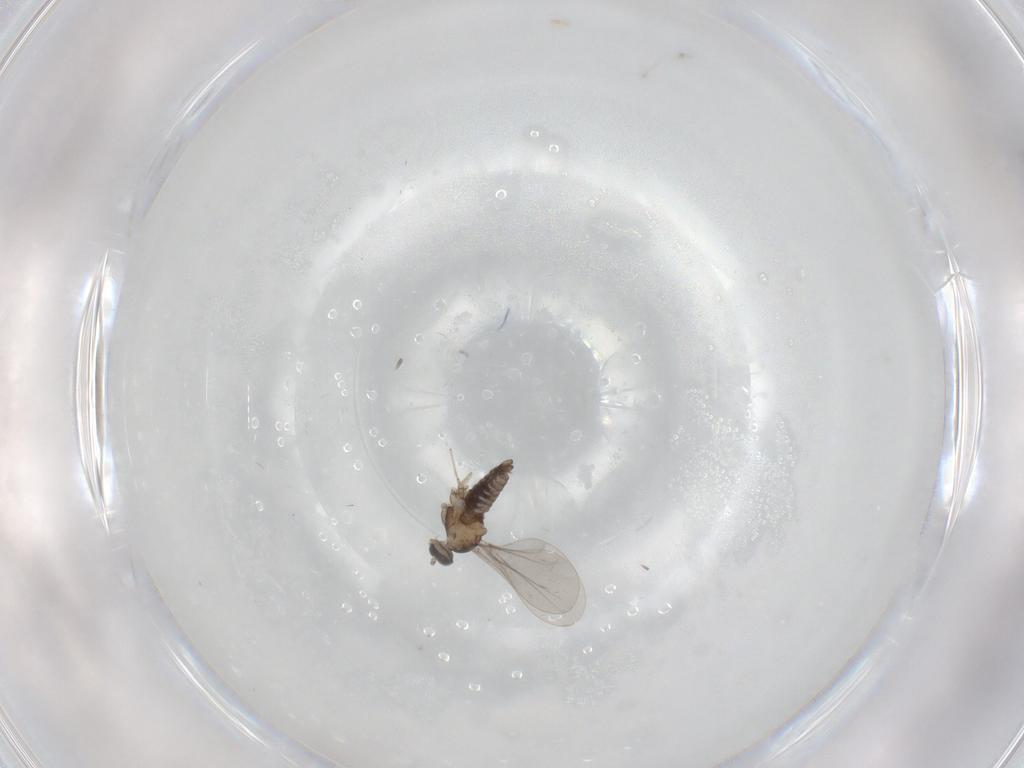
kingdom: Animalia
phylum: Arthropoda
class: Insecta
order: Diptera
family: Cecidomyiidae
